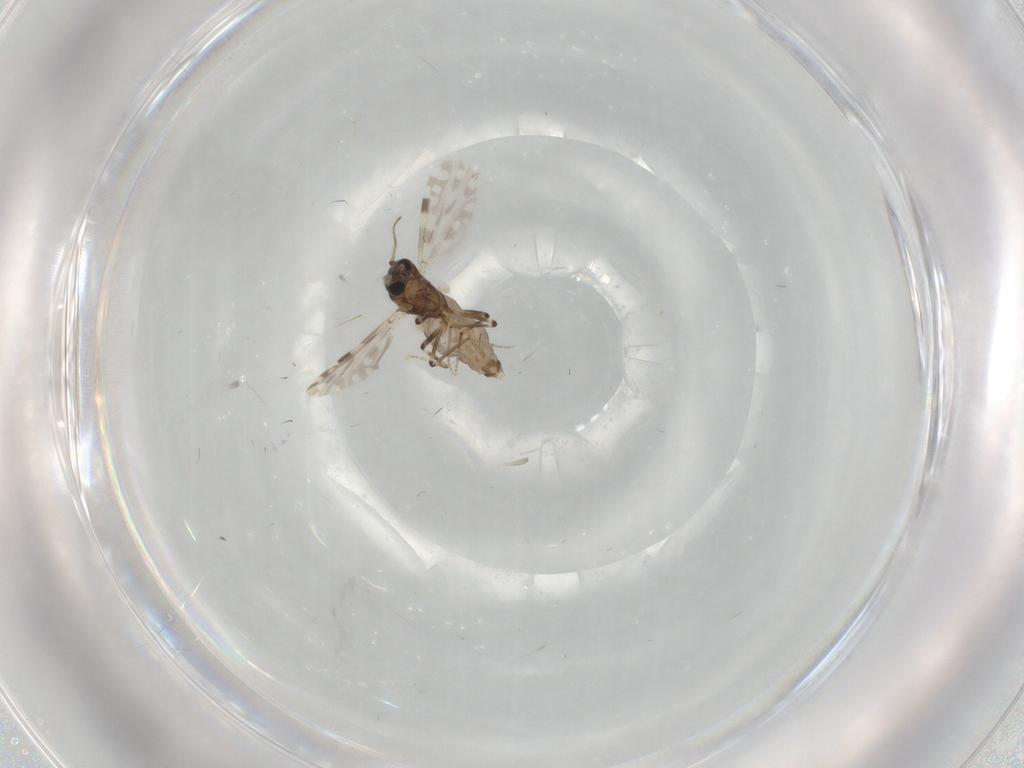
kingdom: Animalia
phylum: Arthropoda
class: Insecta
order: Diptera
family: Ceratopogonidae
